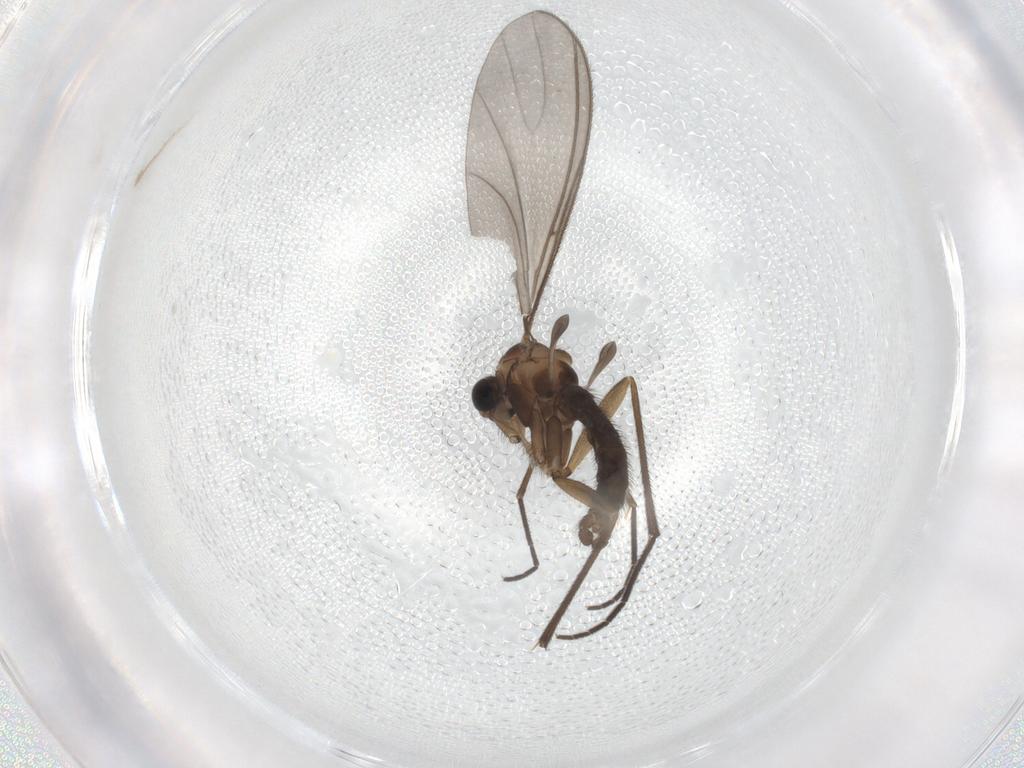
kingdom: Animalia
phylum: Arthropoda
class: Insecta
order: Diptera
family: Sciaridae
